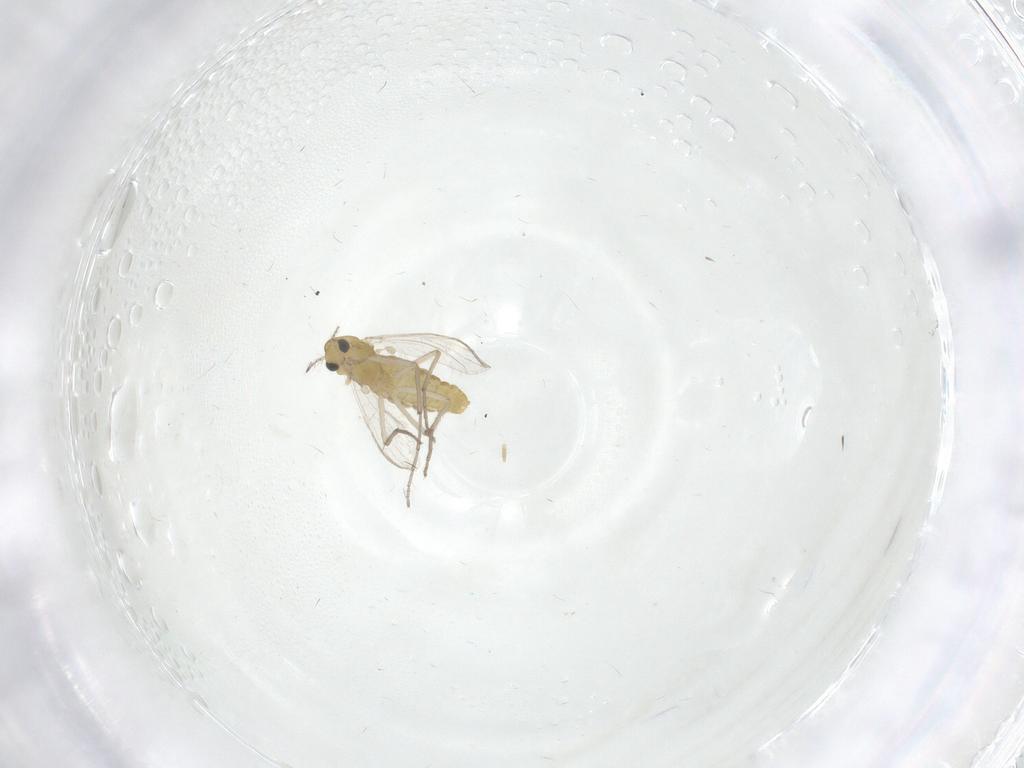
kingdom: Animalia
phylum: Arthropoda
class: Insecta
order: Diptera
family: Chironomidae
